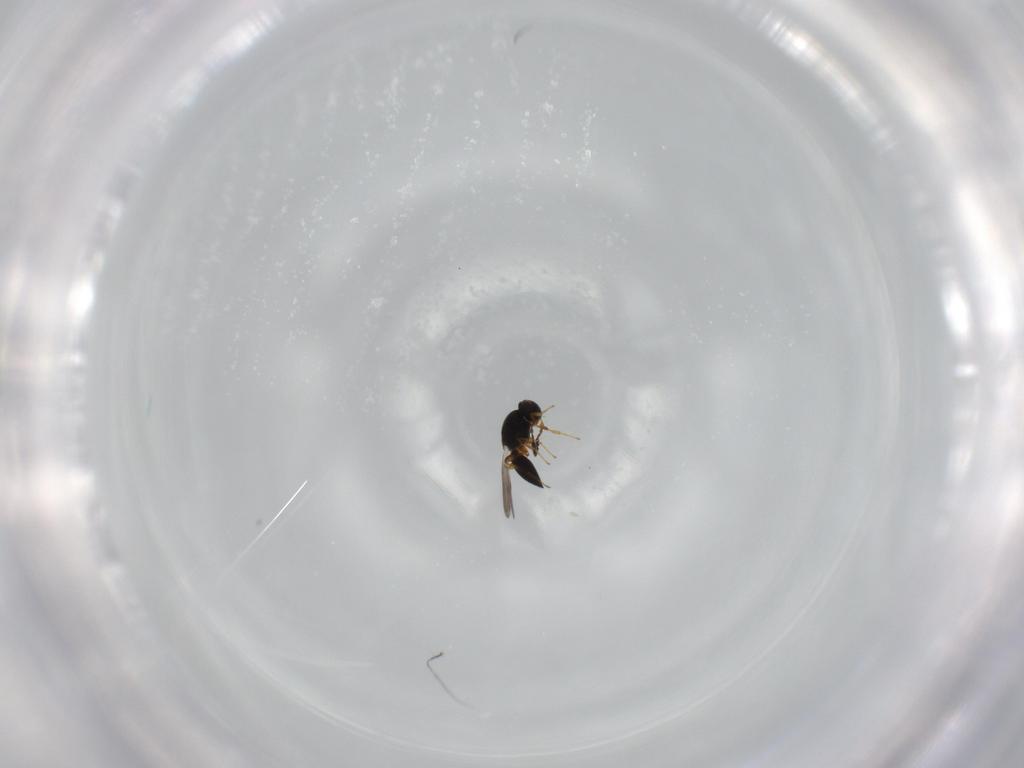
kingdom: Animalia
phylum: Arthropoda
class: Insecta
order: Hymenoptera
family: Platygastridae
